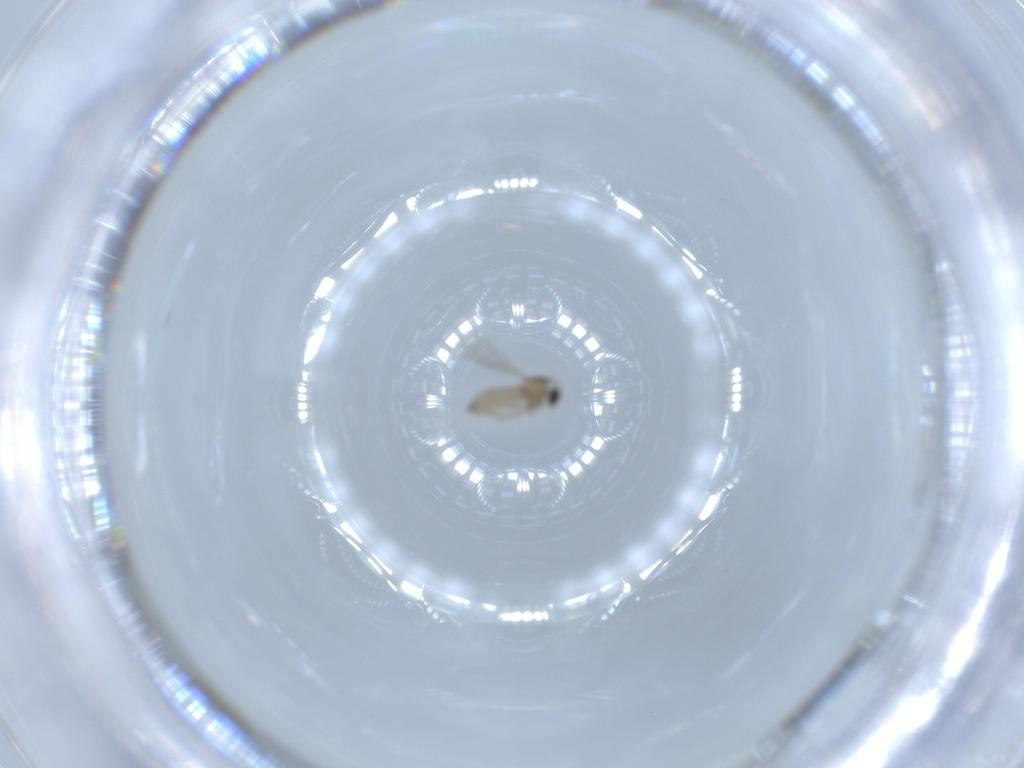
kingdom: Animalia
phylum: Arthropoda
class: Insecta
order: Diptera
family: Cecidomyiidae
